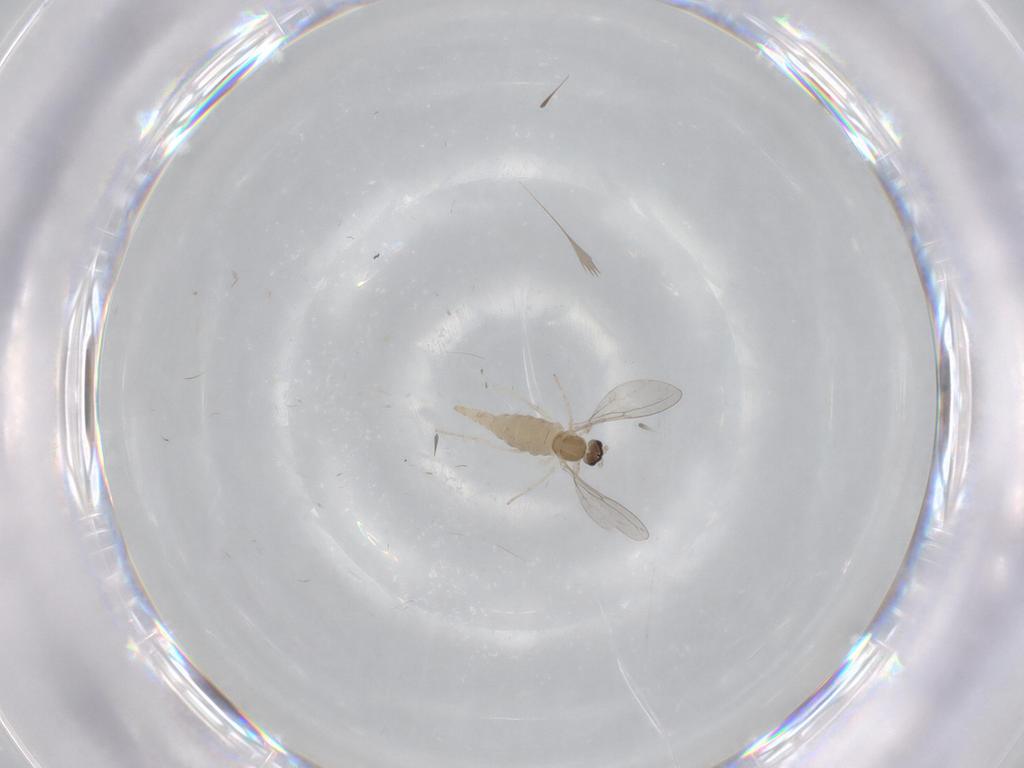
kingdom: Animalia
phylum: Arthropoda
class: Insecta
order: Diptera
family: Cecidomyiidae
